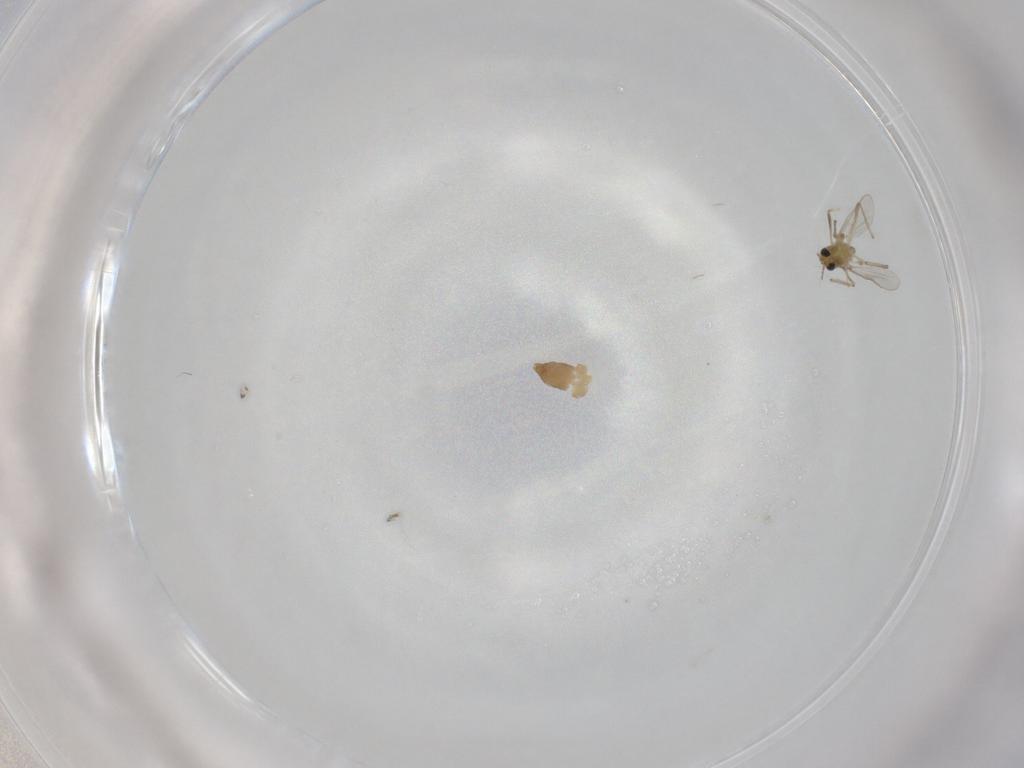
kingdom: Animalia
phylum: Arthropoda
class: Insecta
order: Diptera
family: Chironomidae
